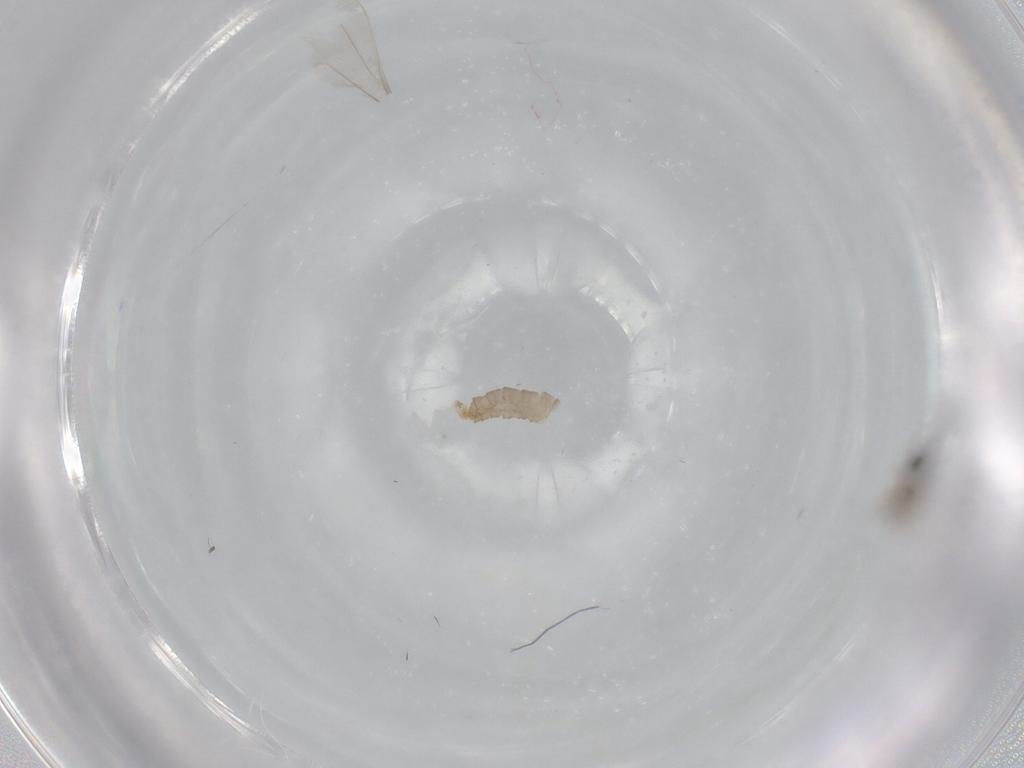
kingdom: Animalia
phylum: Arthropoda
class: Insecta
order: Diptera
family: Cecidomyiidae
